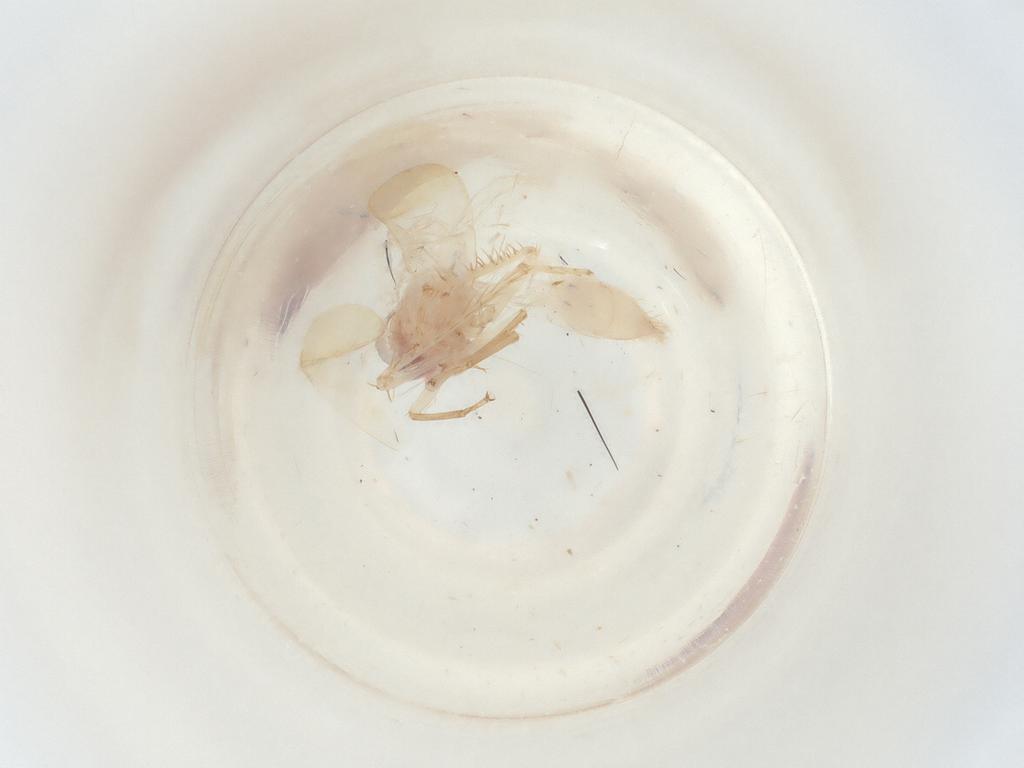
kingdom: Animalia
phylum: Arthropoda
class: Insecta
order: Hemiptera
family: Cicadellidae
